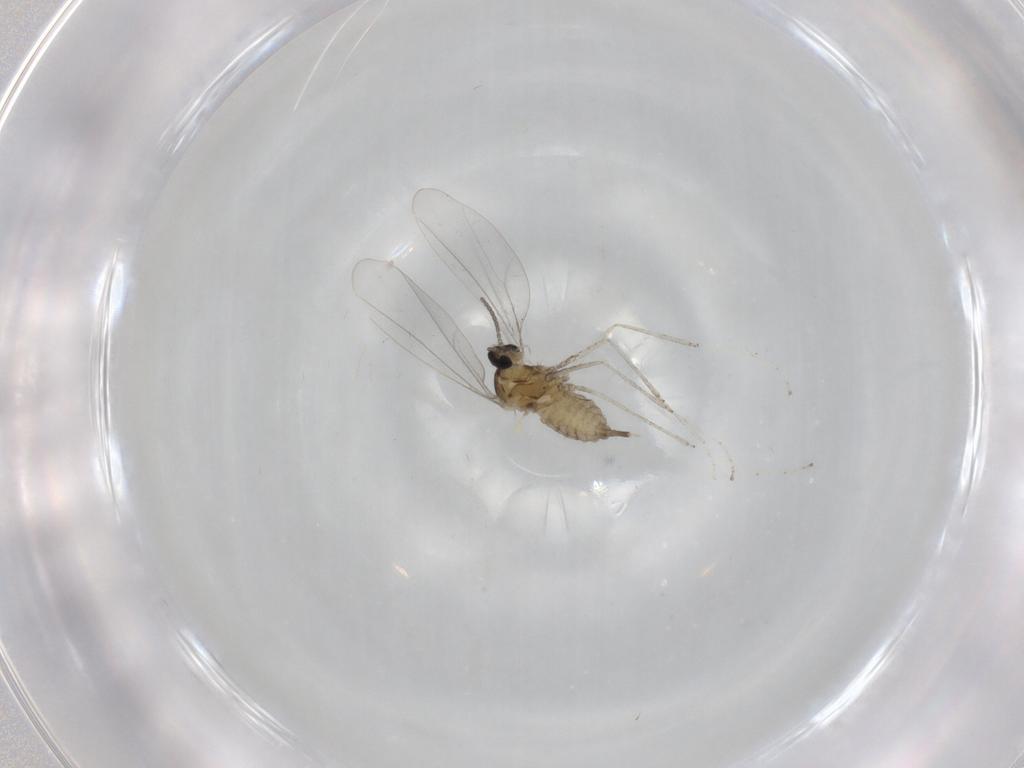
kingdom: Animalia
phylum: Arthropoda
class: Insecta
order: Diptera
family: Cecidomyiidae
